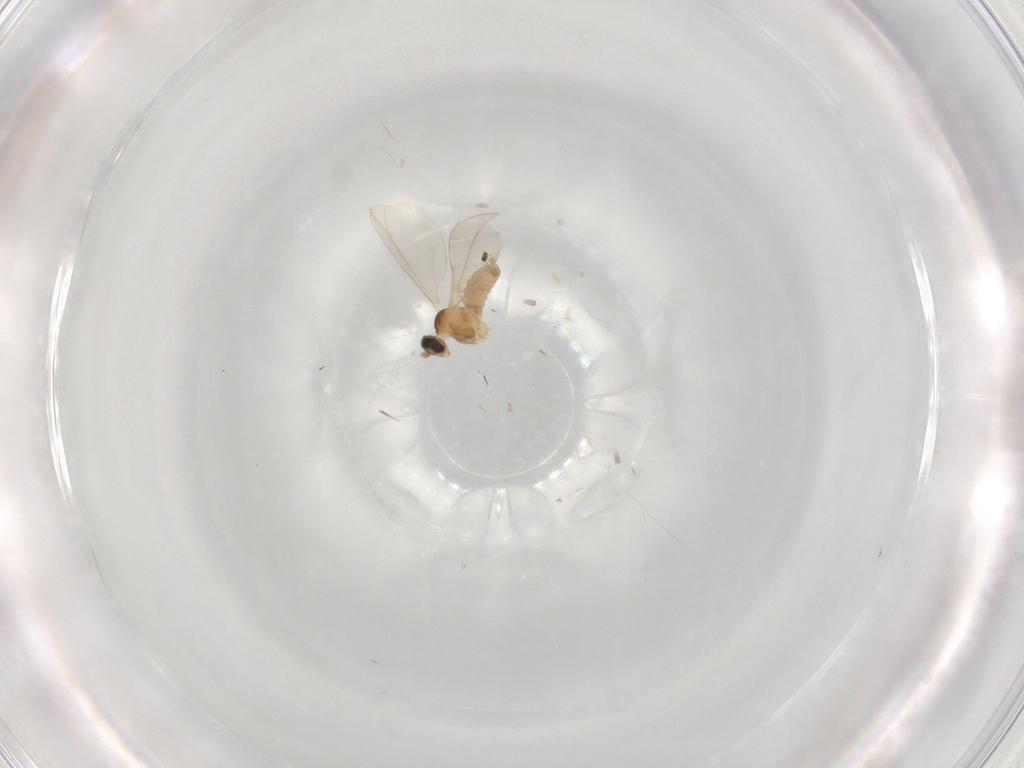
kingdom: Animalia
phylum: Arthropoda
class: Insecta
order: Diptera
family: Cecidomyiidae
